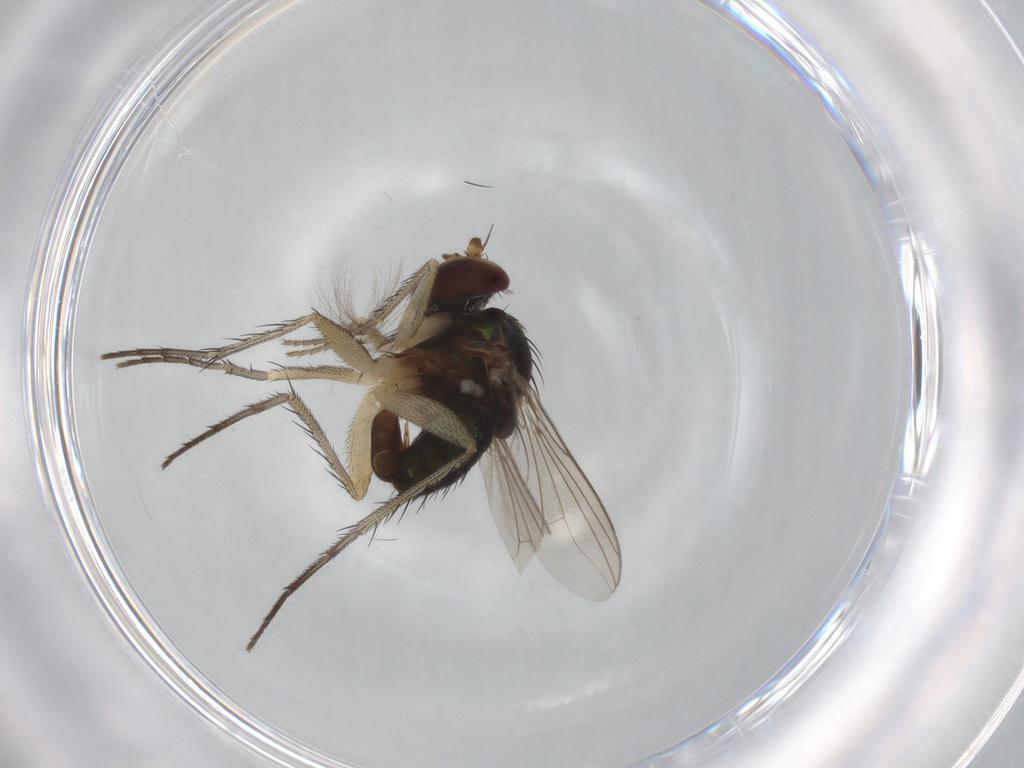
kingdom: Animalia
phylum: Arthropoda
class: Insecta
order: Diptera
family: Dolichopodidae
